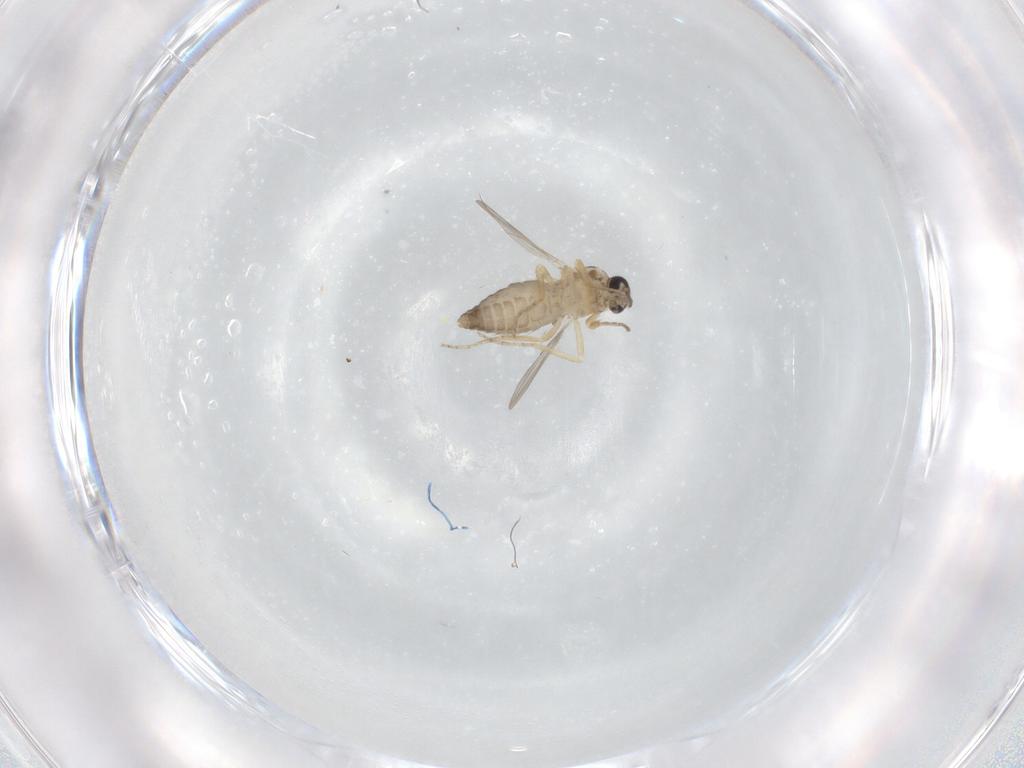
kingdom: Animalia
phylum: Arthropoda
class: Insecta
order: Diptera
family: Ceratopogonidae
